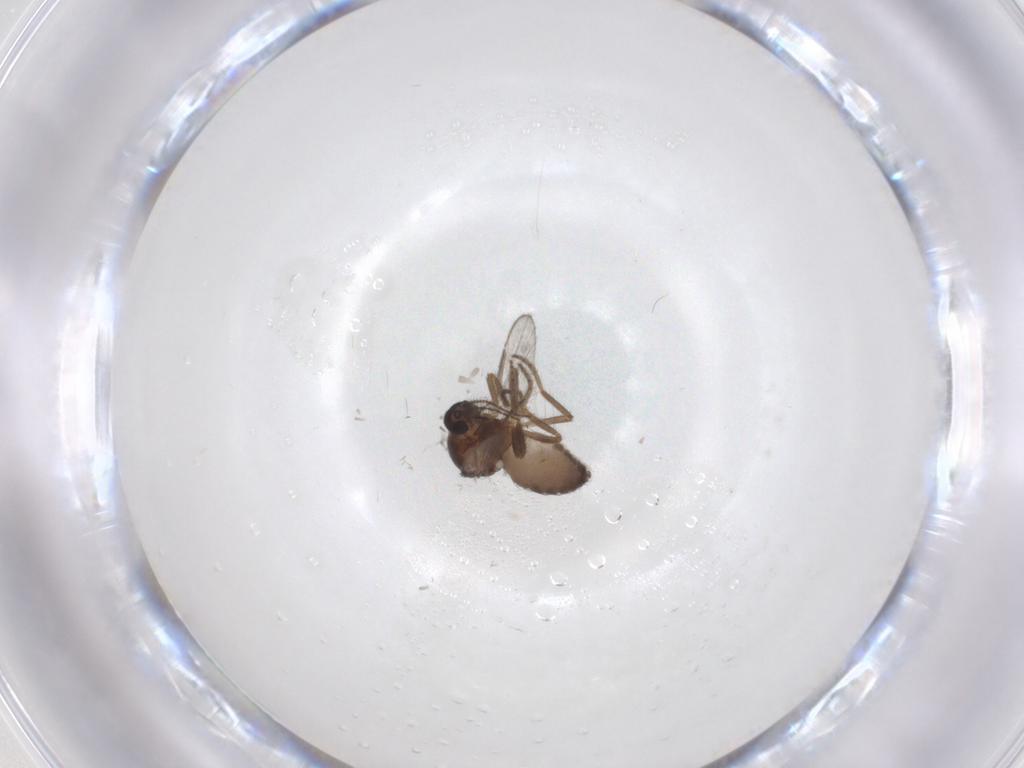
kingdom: Animalia
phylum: Arthropoda
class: Insecta
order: Diptera
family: Ceratopogonidae
